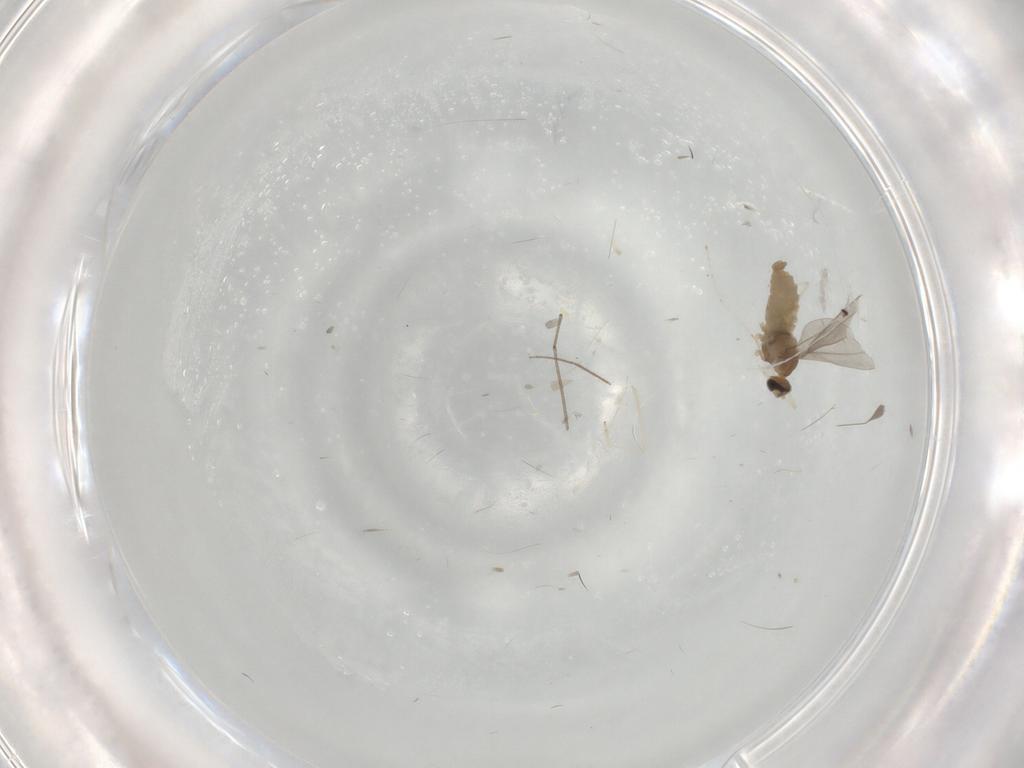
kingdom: Animalia
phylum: Arthropoda
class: Insecta
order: Diptera
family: Cecidomyiidae
